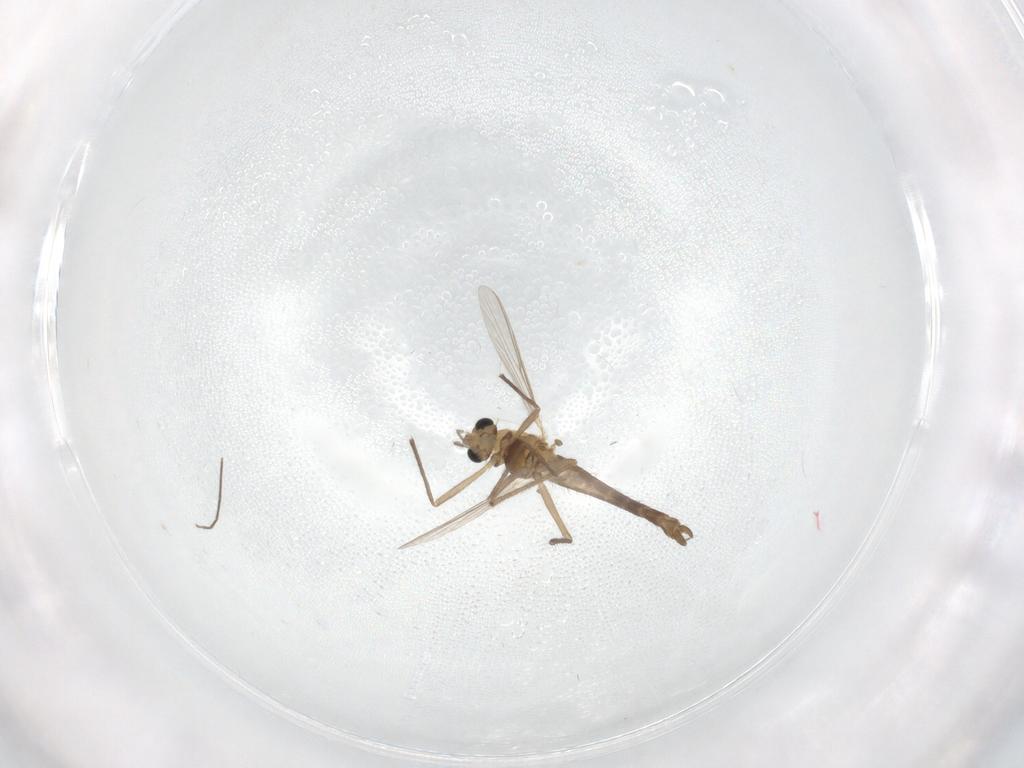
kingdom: Animalia
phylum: Arthropoda
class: Insecta
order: Diptera
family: Chironomidae
